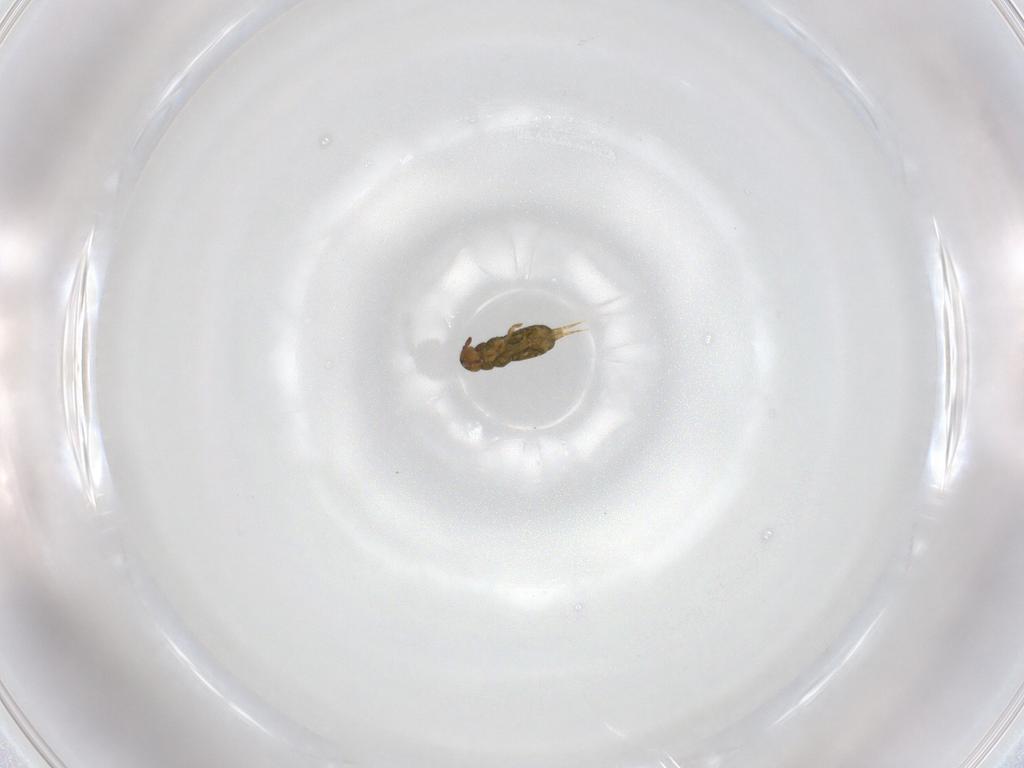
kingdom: Animalia
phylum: Arthropoda
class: Collembola
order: Entomobryomorpha
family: Isotomidae
